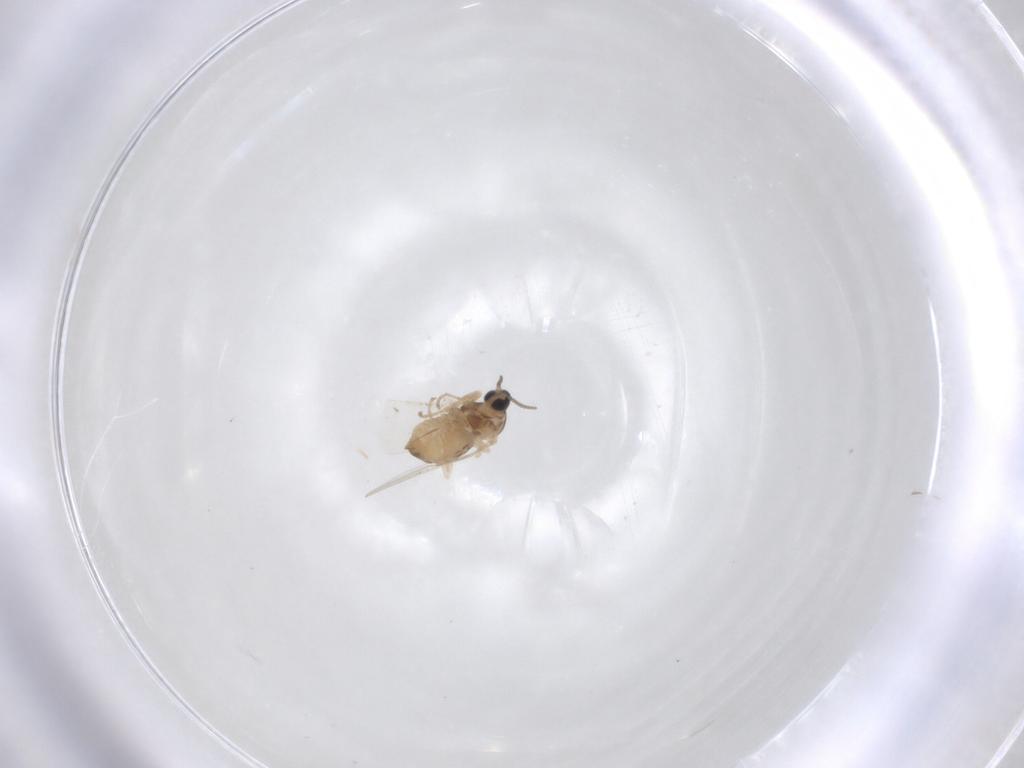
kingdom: Animalia
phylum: Arthropoda
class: Insecta
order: Diptera
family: Cecidomyiidae
